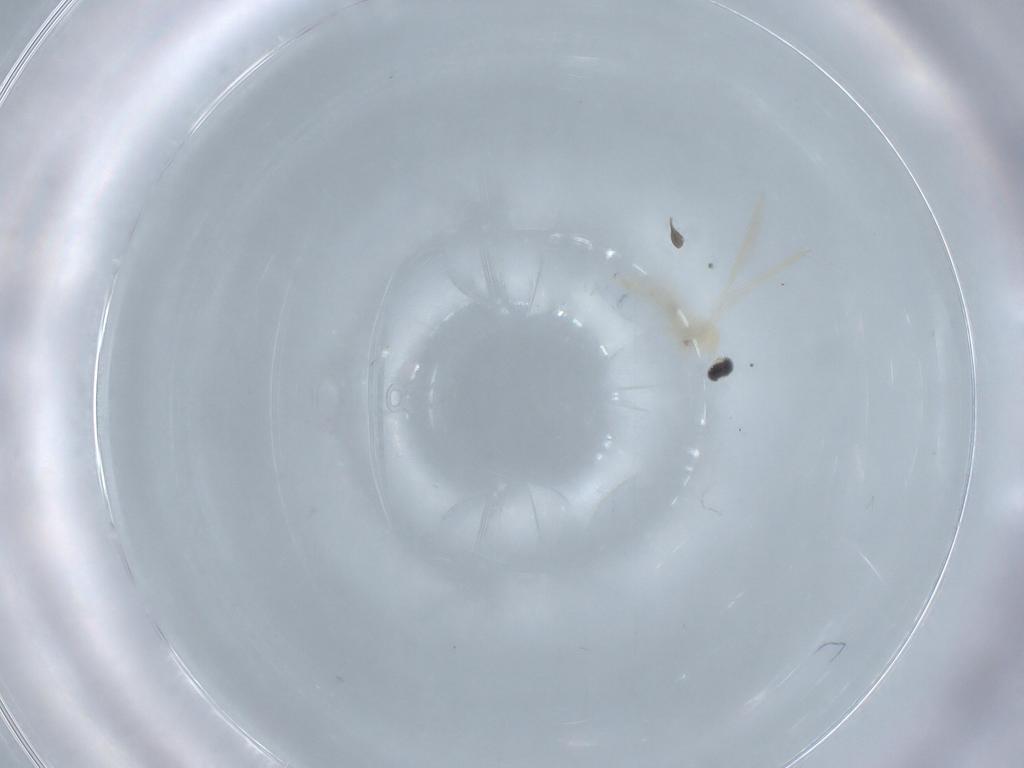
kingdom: Animalia
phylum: Arthropoda
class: Insecta
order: Diptera
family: Cecidomyiidae
